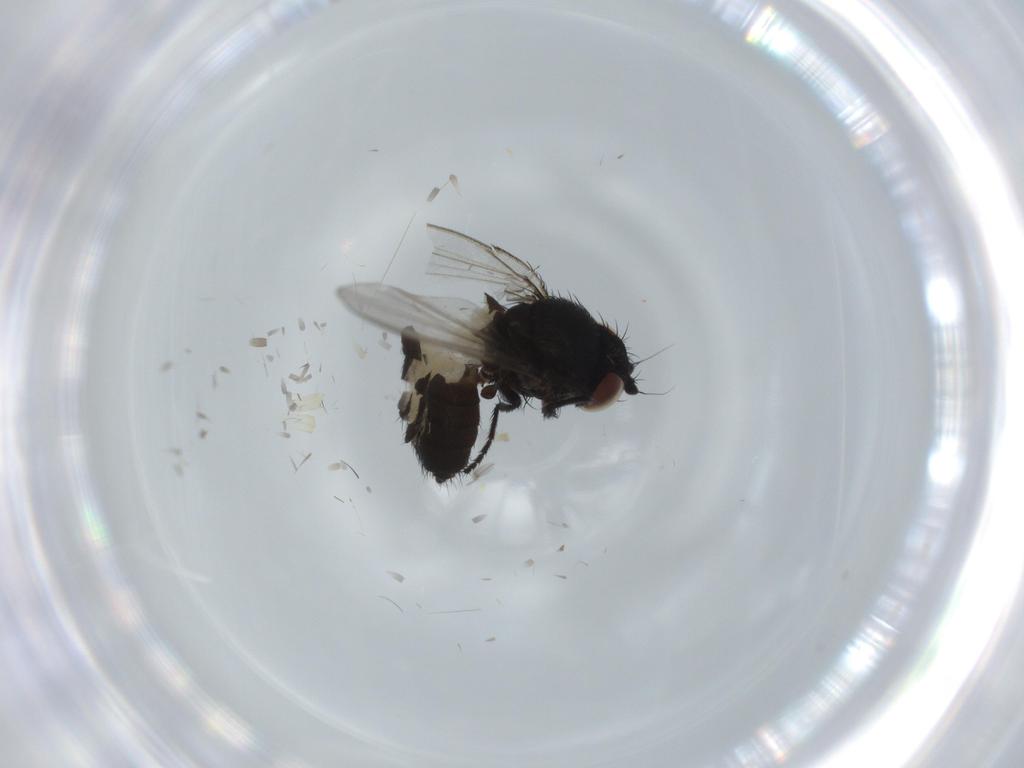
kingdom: Animalia
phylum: Arthropoda
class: Insecta
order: Diptera
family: Milichiidae
